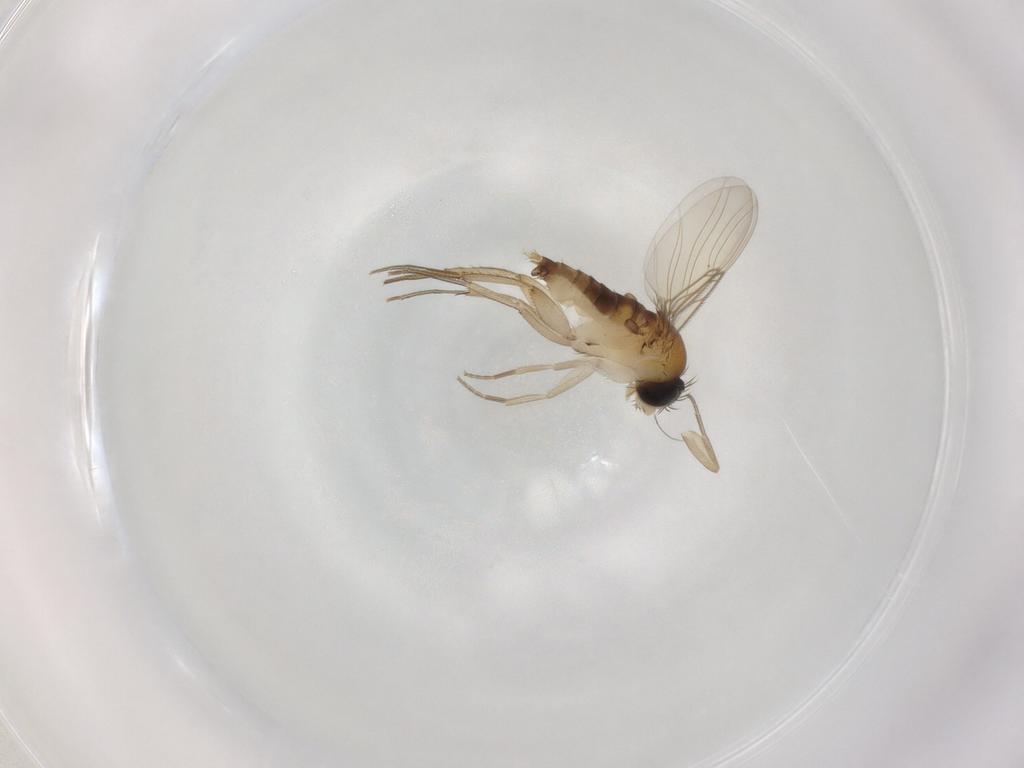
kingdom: Animalia
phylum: Arthropoda
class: Insecta
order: Diptera
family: Phoridae
